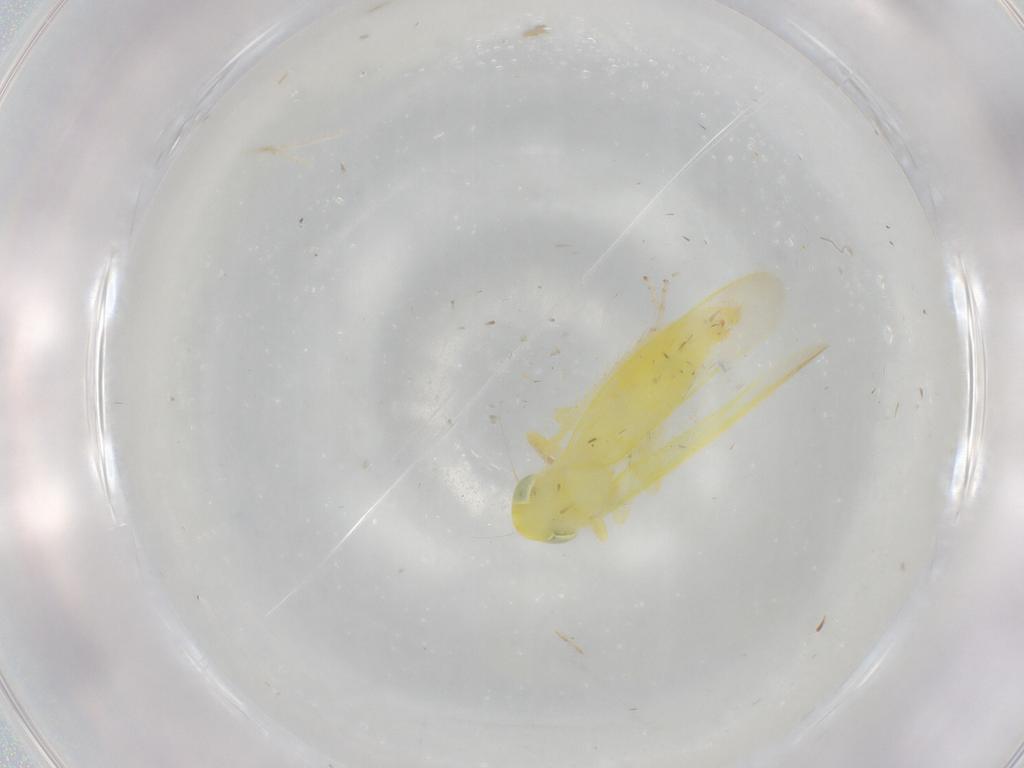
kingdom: Animalia
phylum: Arthropoda
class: Insecta
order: Hemiptera
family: Cicadellidae
